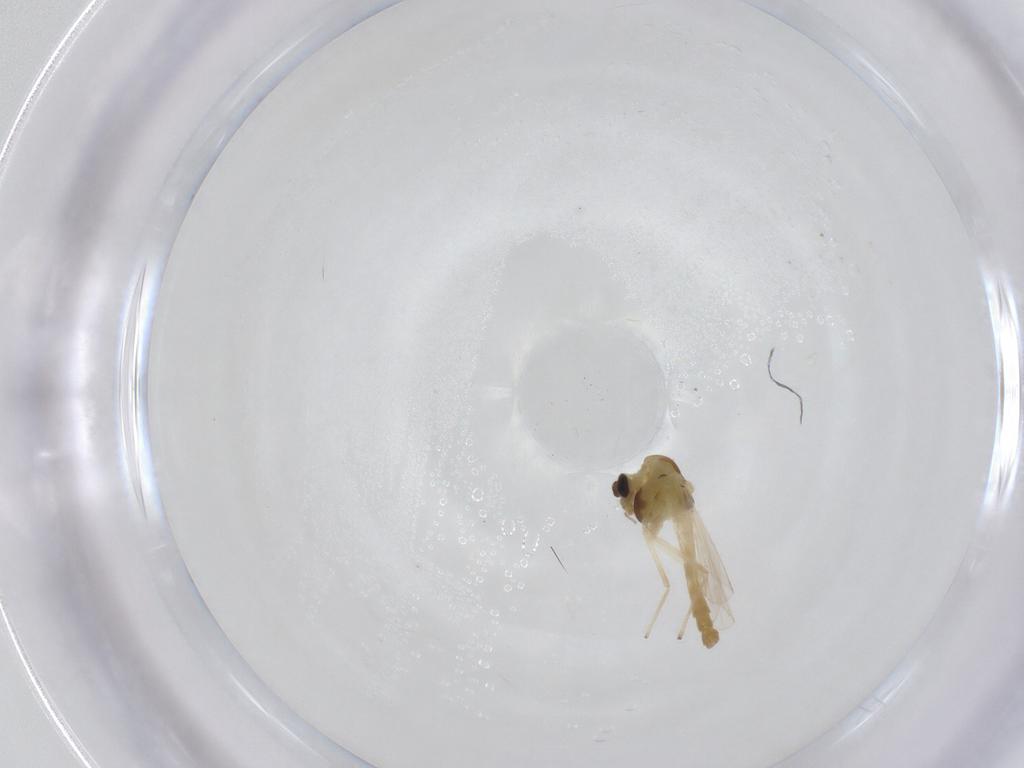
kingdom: Animalia
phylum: Arthropoda
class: Insecta
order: Diptera
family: Chironomidae
